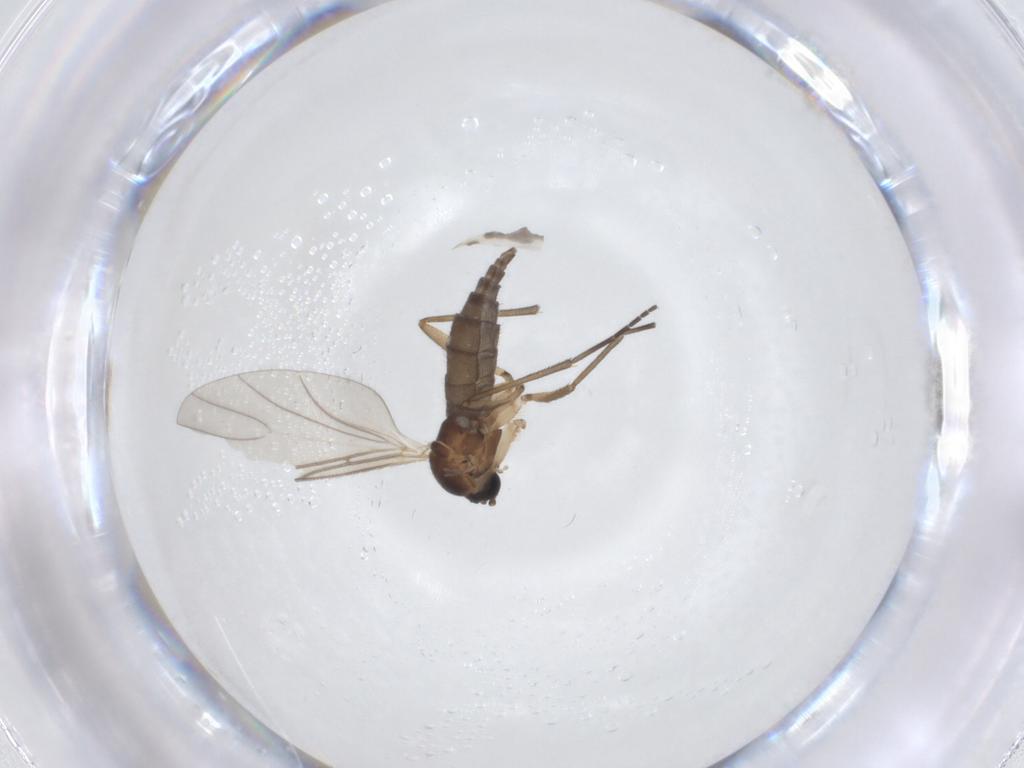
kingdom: Animalia
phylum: Arthropoda
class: Insecta
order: Diptera
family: Sciaridae
